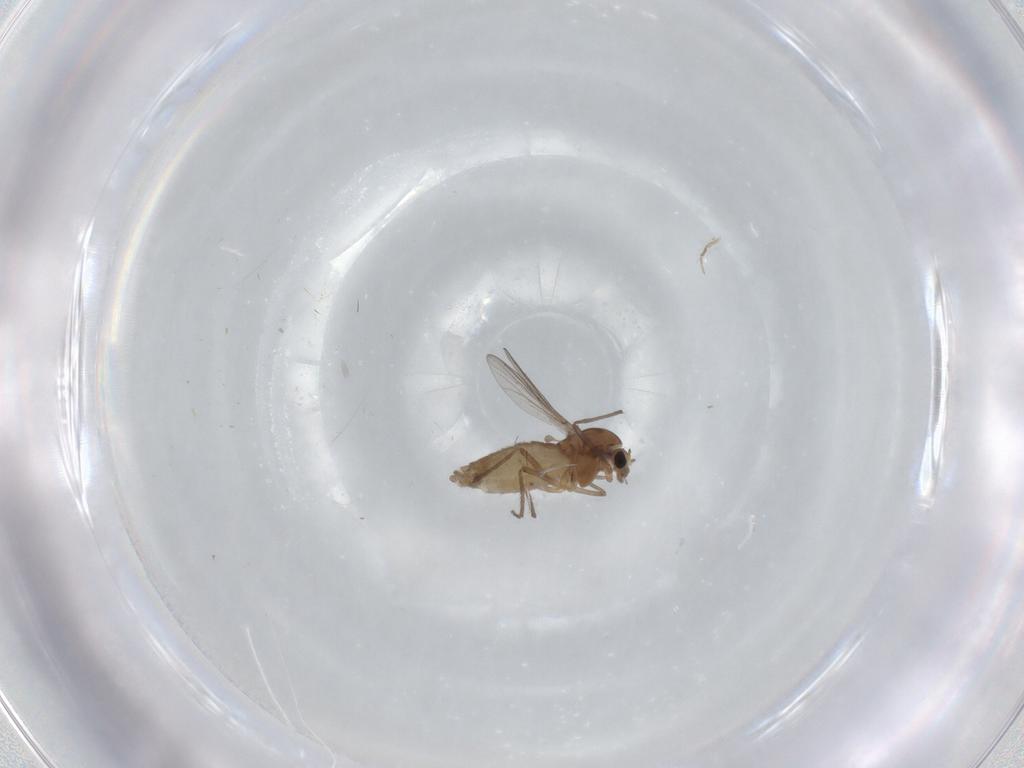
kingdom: Animalia
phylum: Arthropoda
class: Insecta
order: Diptera
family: Chironomidae
